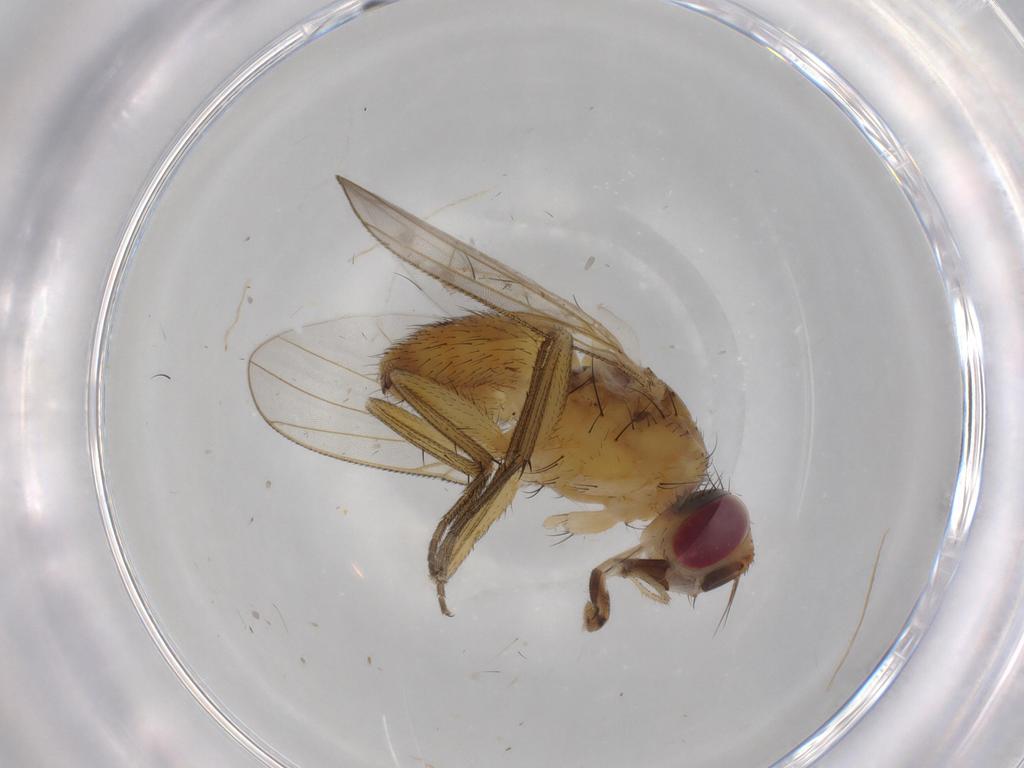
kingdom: Animalia
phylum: Arthropoda
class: Insecta
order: Diptera
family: Muscidae
